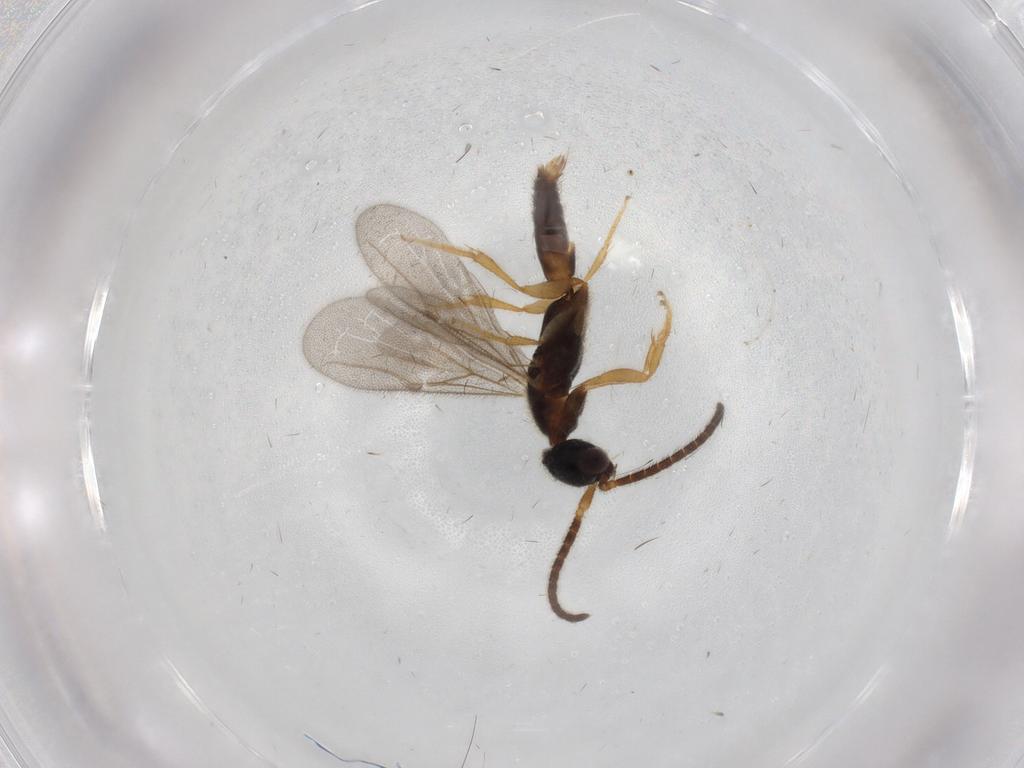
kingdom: Animalia
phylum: Arthropoda
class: Insecta
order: Hymenoptera
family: Bethylidae
